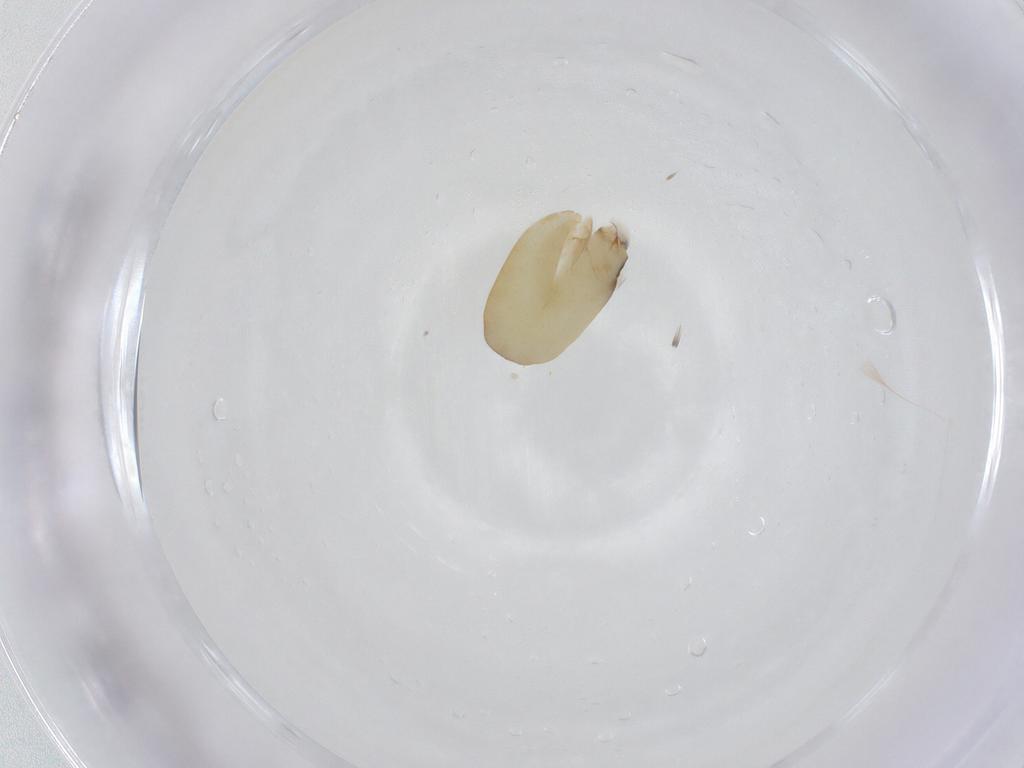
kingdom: Animalia
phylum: Arthropoda
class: Insecta
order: Hymenoptera
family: Dryinidae
